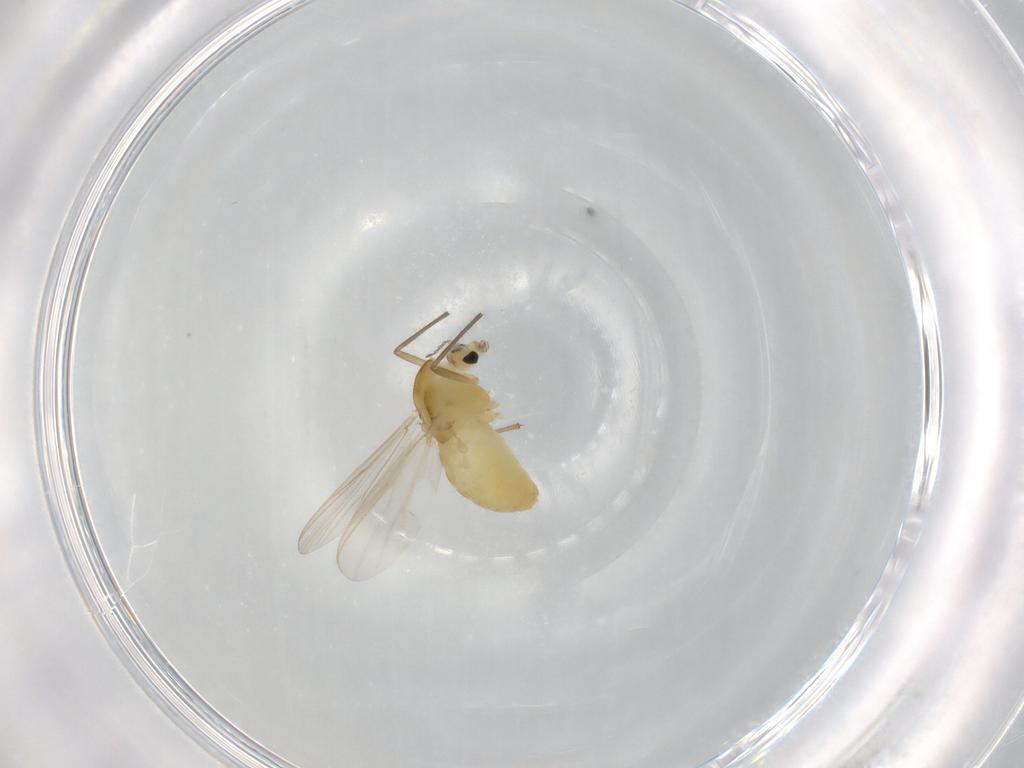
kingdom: Animalia
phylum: Arthropoda
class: Insecta
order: Diptera
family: Chironomidae
